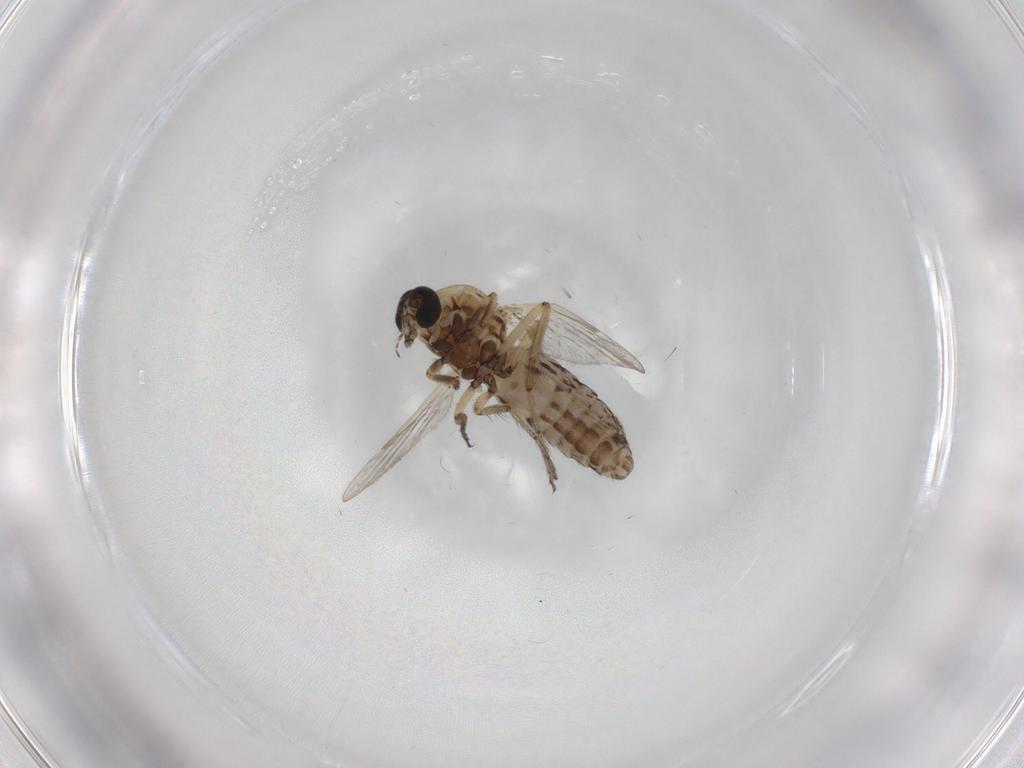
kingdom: Animalia
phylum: Arthropoda
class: Insecta
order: Diptera
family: Ceratopogonidae
